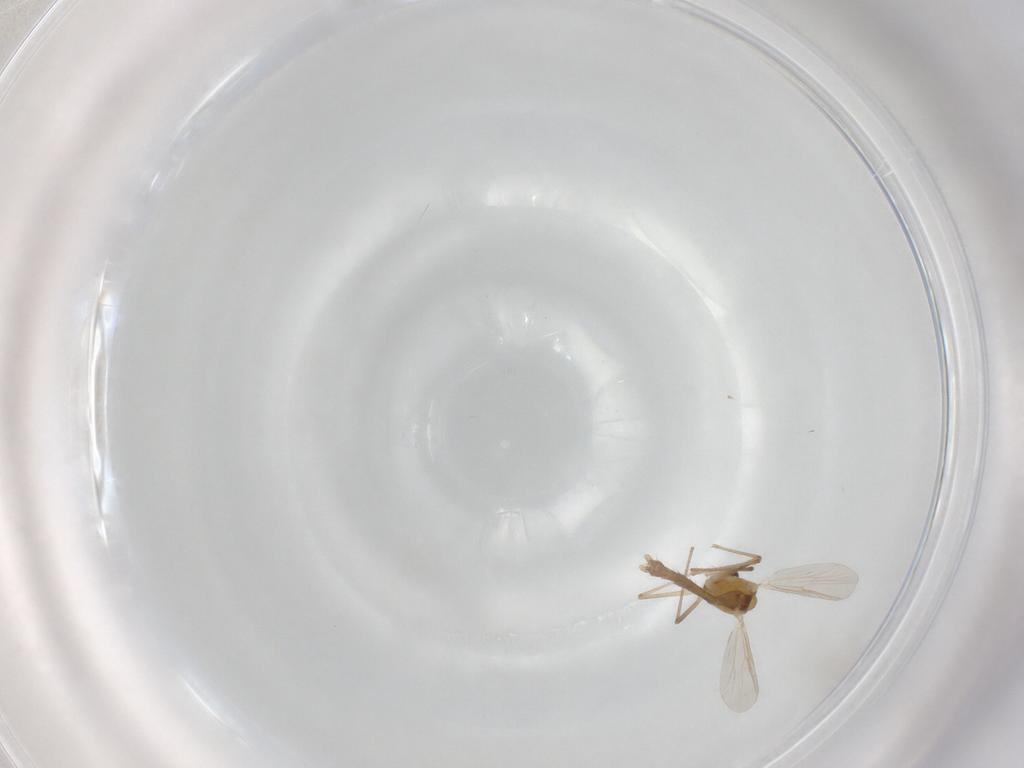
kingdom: Animalia
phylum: Arthropoda
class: Insecta
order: Diptera
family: Chironomidae
